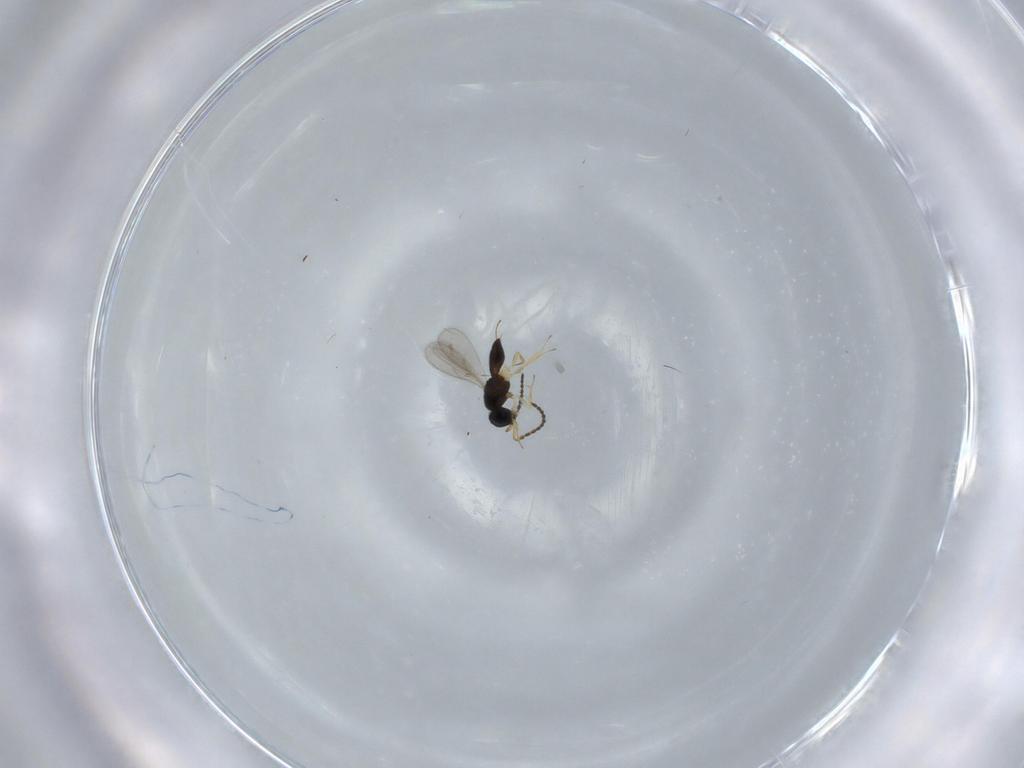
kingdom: Animalia
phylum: Arthropoda
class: Insecta
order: Hymenoptera
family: Scelionidae
